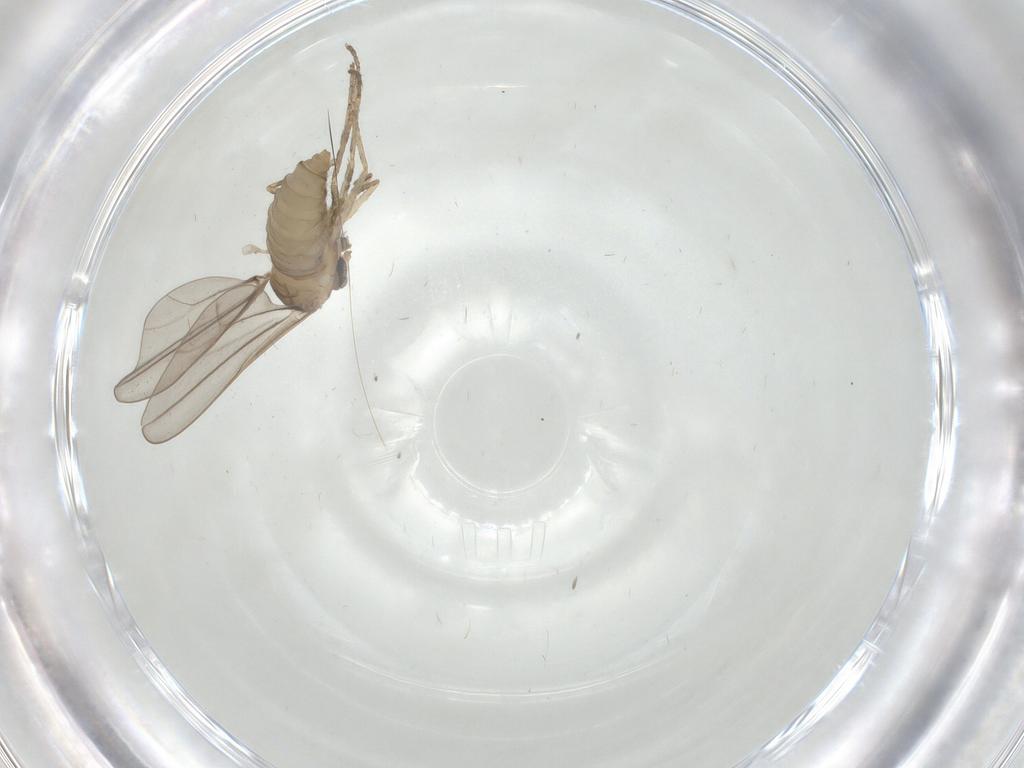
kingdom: Animalia
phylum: Arthropoda
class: Insecta
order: Diptera
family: Cecidomyiidae
